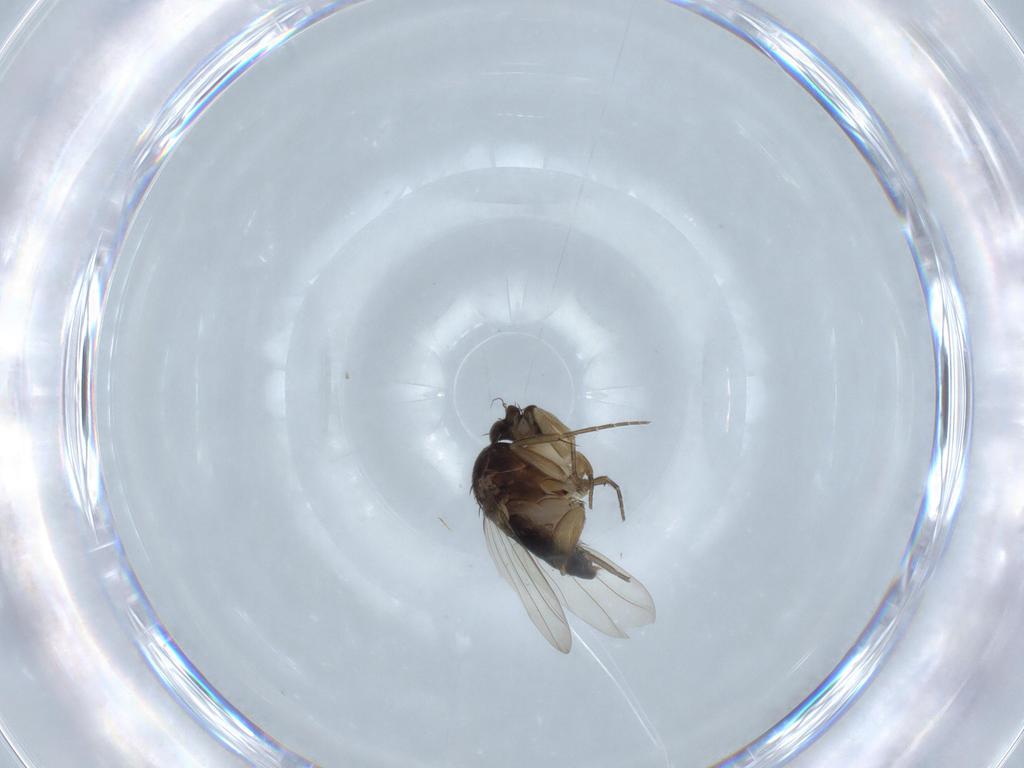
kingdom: Animalia
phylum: Arthropoda
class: Insecta
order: Diptera
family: Phoridae
